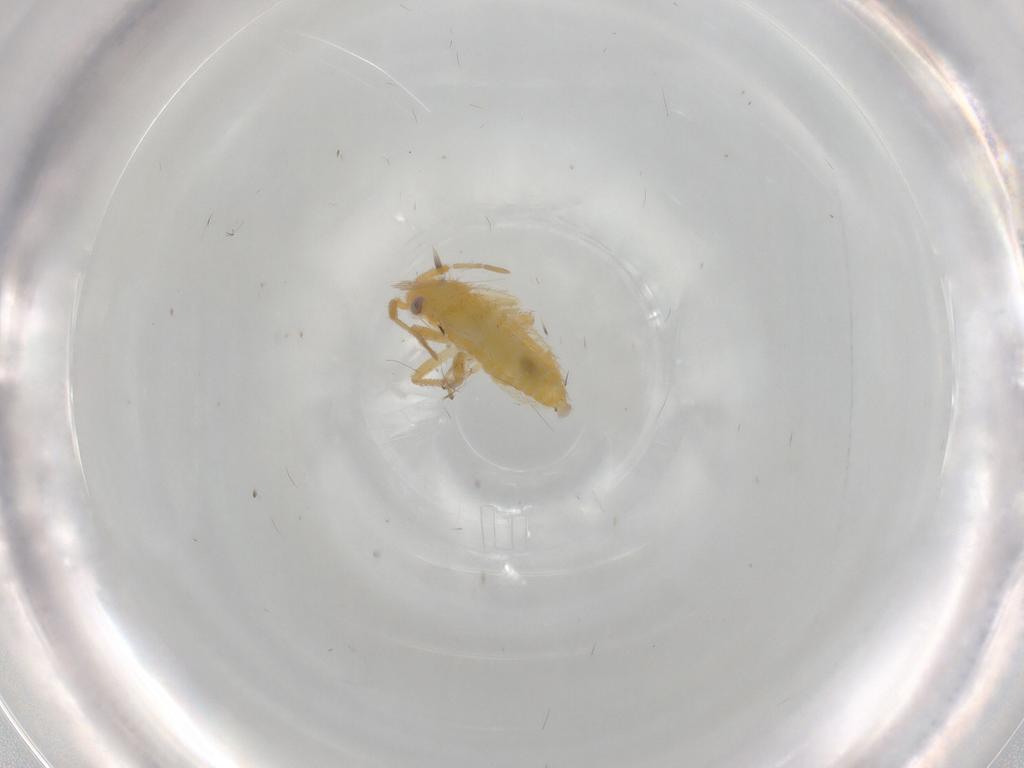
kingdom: Animalia
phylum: Arthropoda
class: Insecta
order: Hemiptera
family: Miridae
